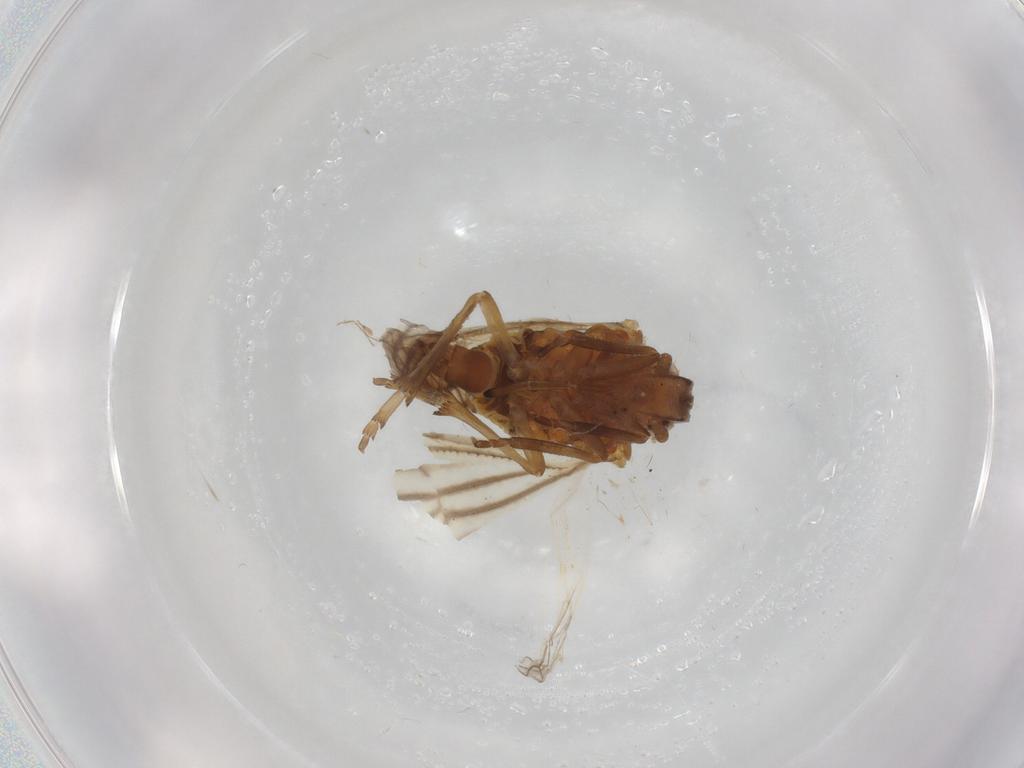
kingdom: Animalia
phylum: Arthropoda
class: Insecta
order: Hemiptera
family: Meenoplidae
